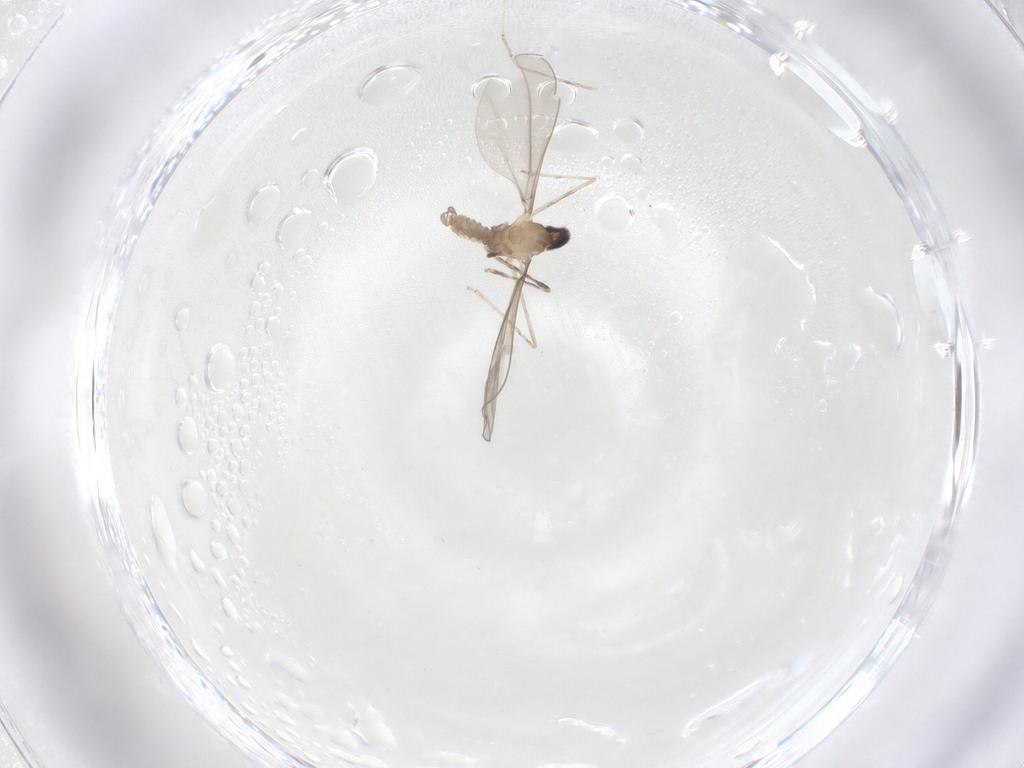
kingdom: Animalia
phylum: Arthropoda
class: Insecta
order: Diptera
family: Cecidomyiidae
